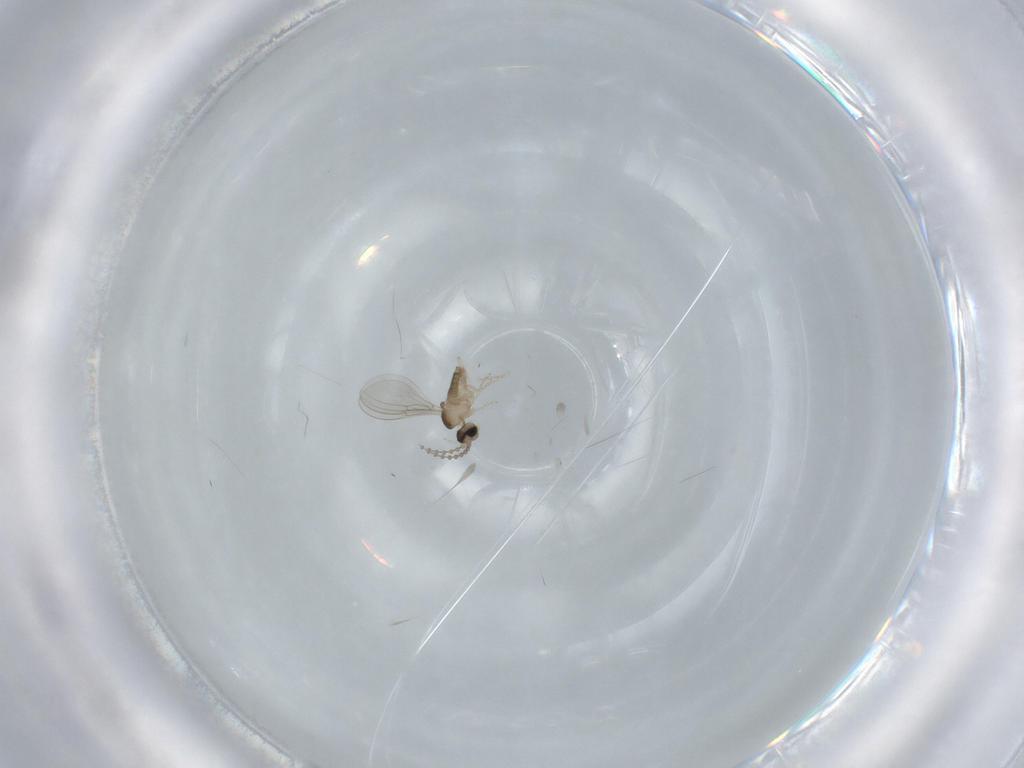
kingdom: Animalia
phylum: Arthropoda
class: Insecta
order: Diptera
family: Cecidomyiidae
